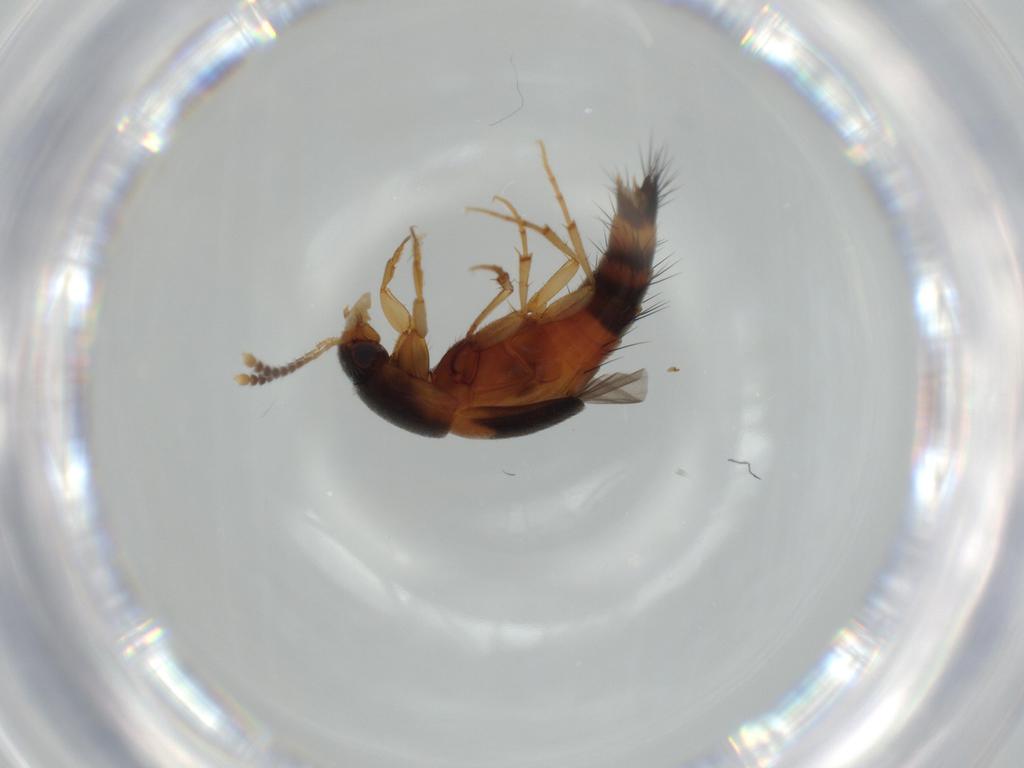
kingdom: Animalia
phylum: Arthropoda
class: Insecta
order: Coleoptera
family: Staphylinidae
